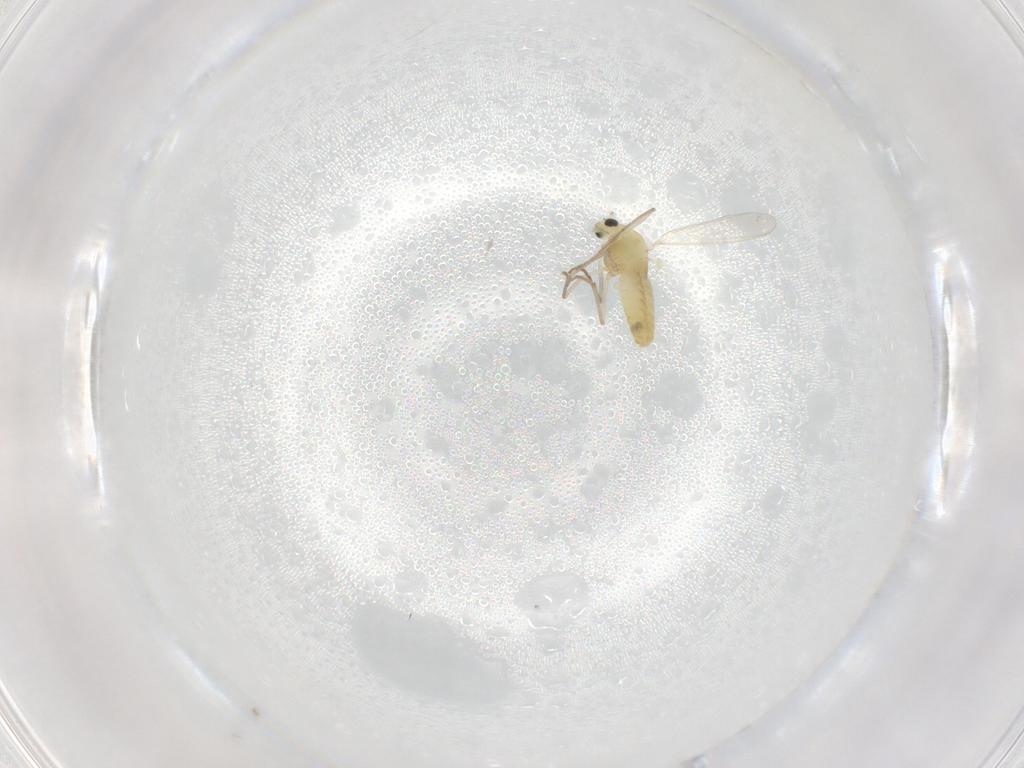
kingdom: Animalia
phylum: Arthropoda
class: Insecta
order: Diptera
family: Chironomidae
